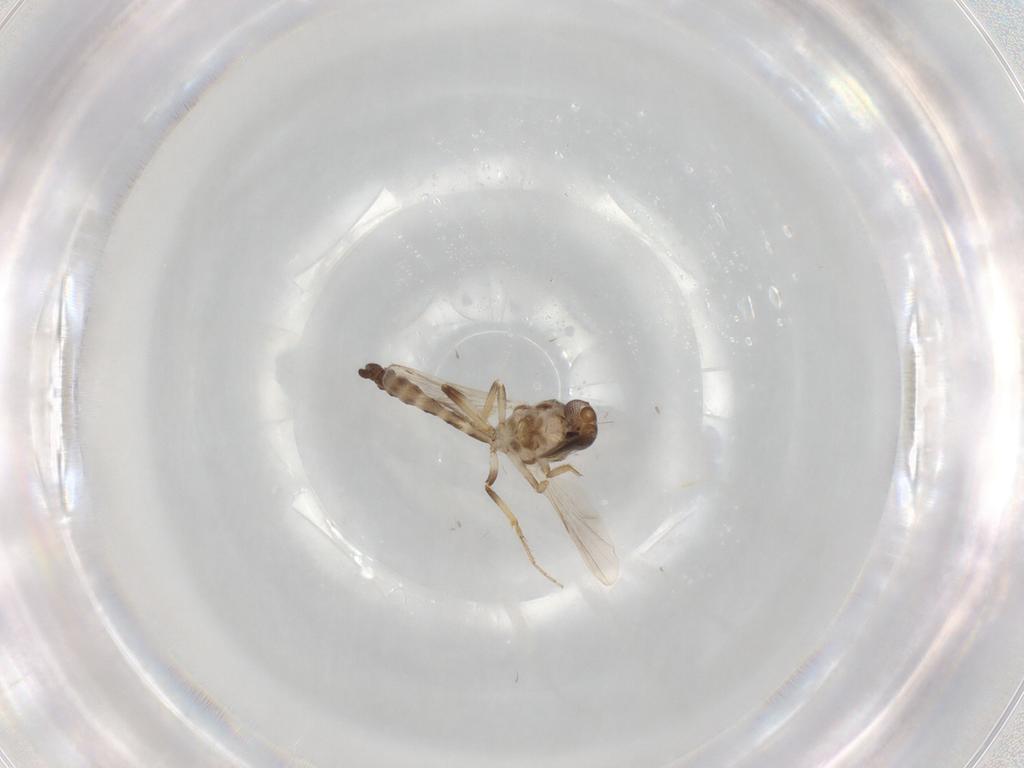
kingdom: Animalia
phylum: Arthropoda
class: Insecta
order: Diptera
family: Ceratopogonidae
